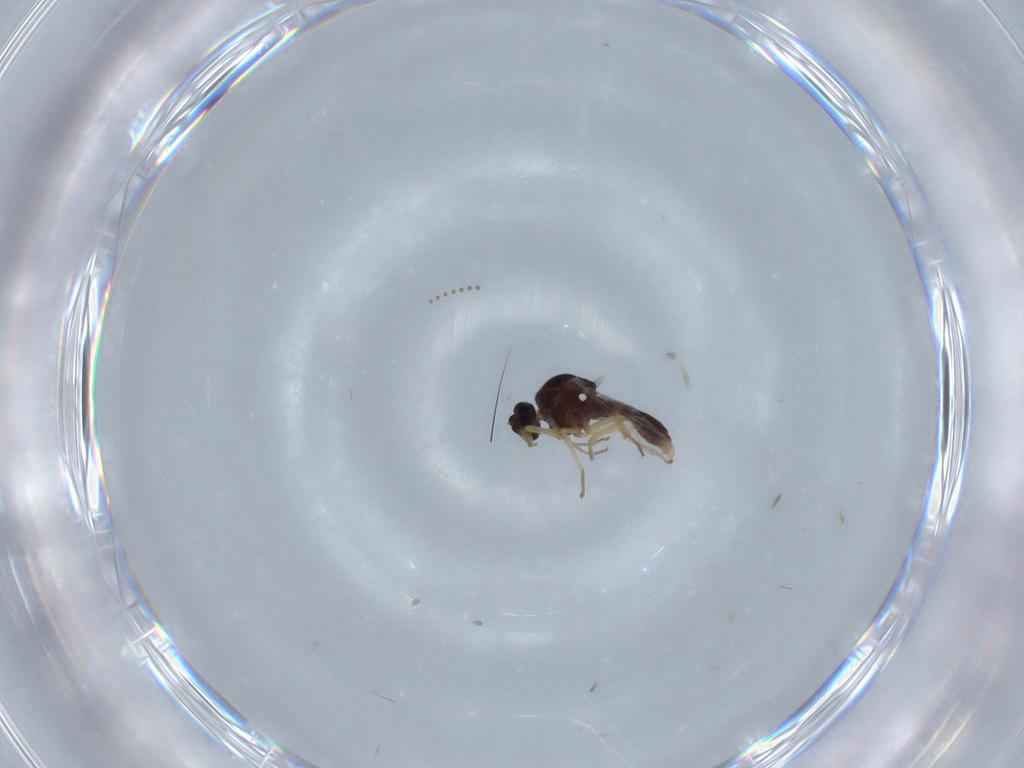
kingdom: Animalia
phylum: Arthropoda
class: Insecta
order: Diptera
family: Ceratopogonidae
